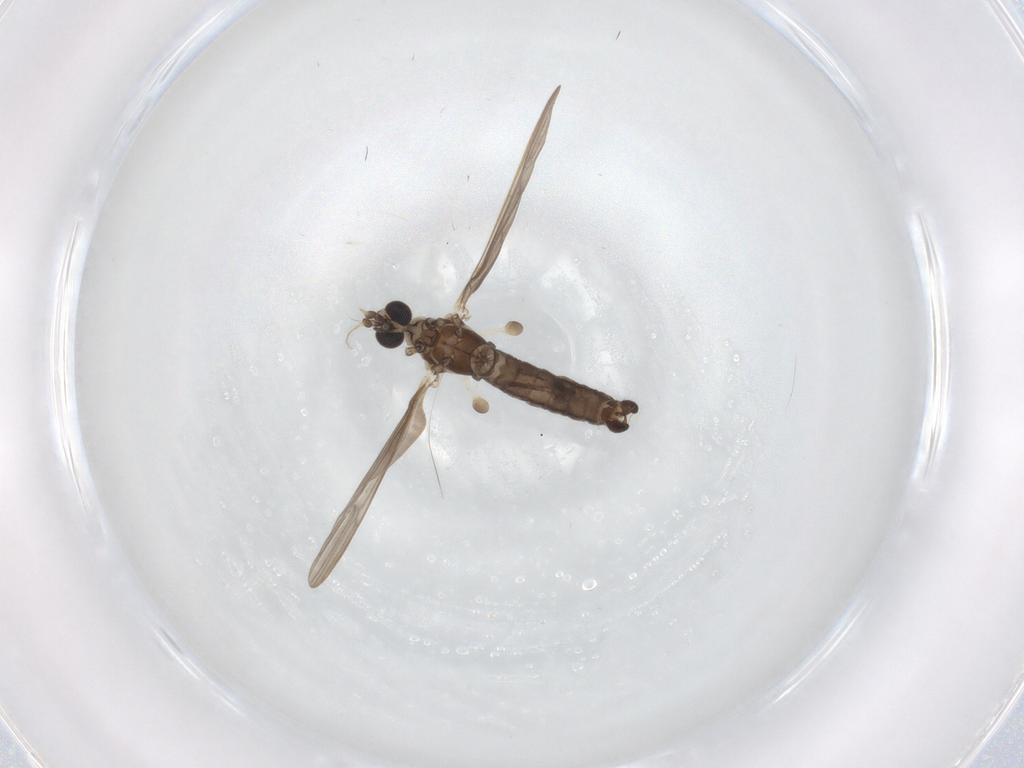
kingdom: Animalia
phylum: Arthropoda
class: Insecta
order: Diptera
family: Limoniidae
